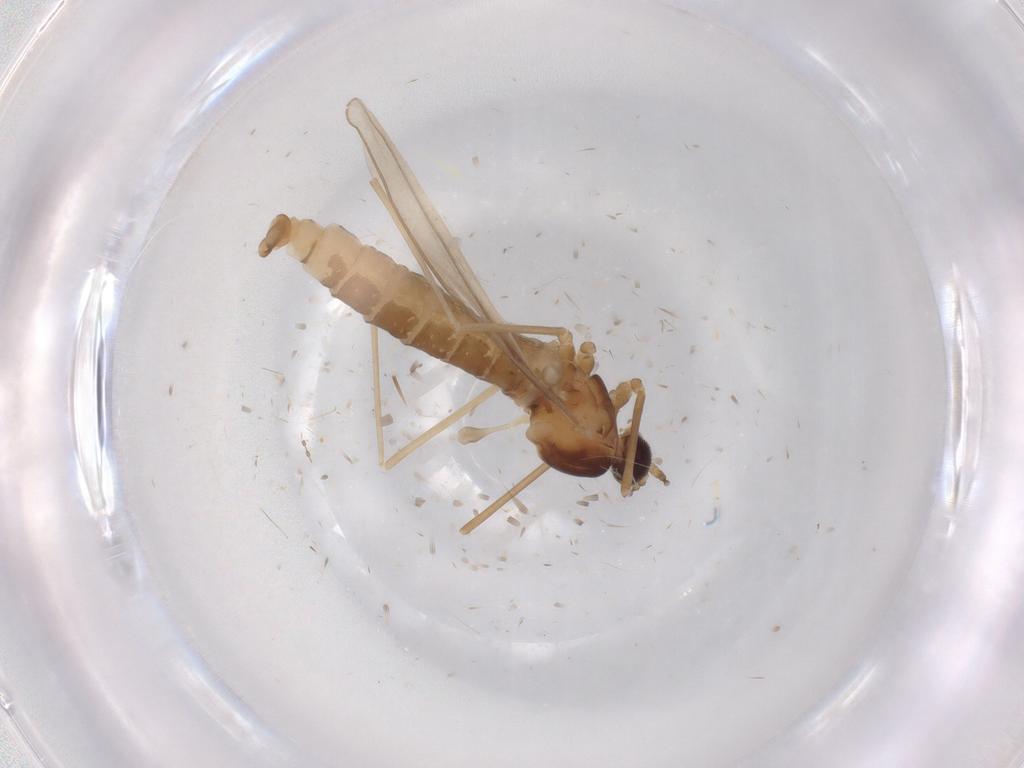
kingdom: Animalia
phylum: Arthropoda
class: Insecta
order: Diptera
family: Cecidomyiidae
